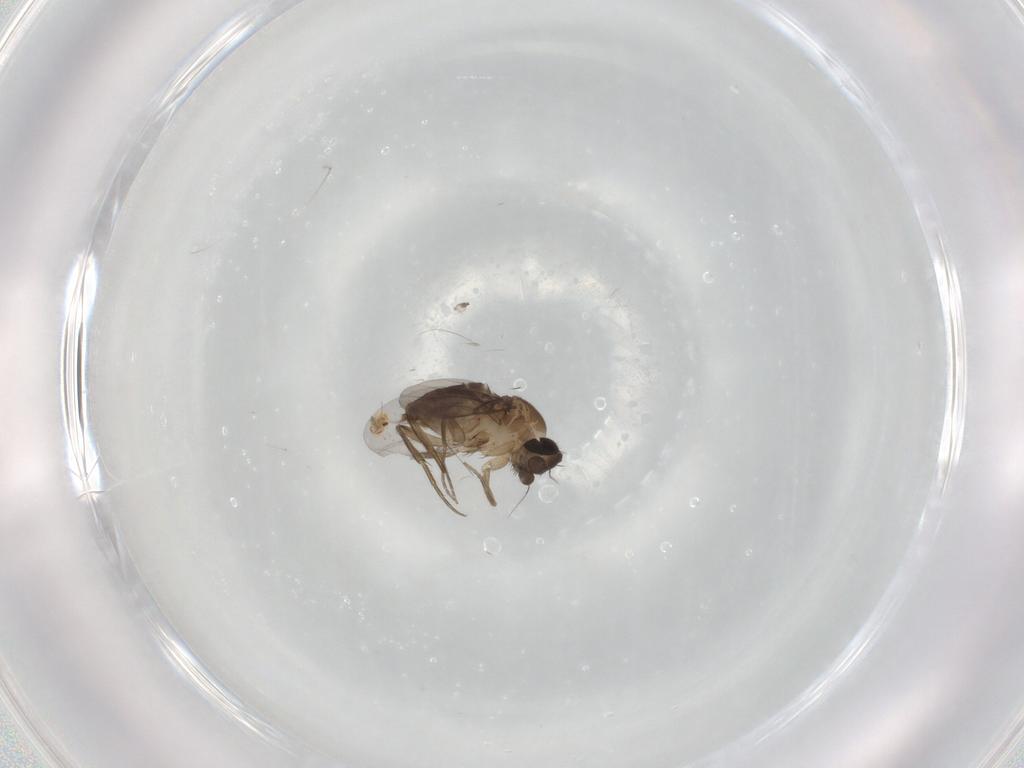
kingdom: Animalia
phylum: Arthropoda
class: Insecta
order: Diptera
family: Phoridae
